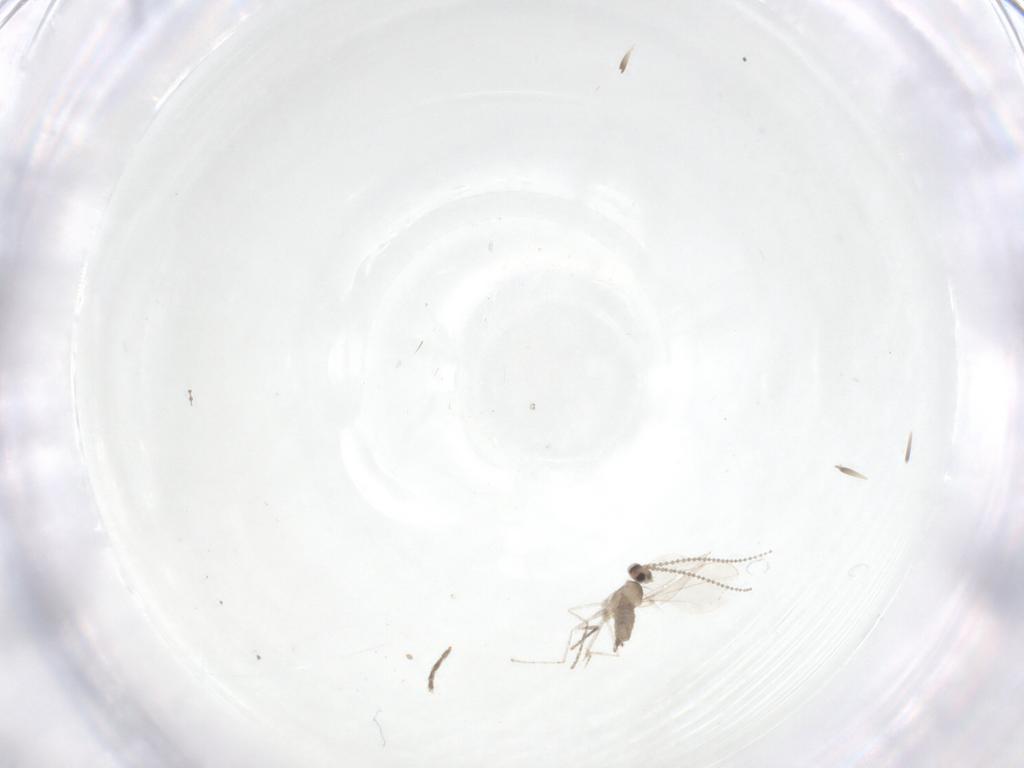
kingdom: Animalia
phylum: Arthropoda
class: Insecta
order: Diptera
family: Cecidomyiidae
